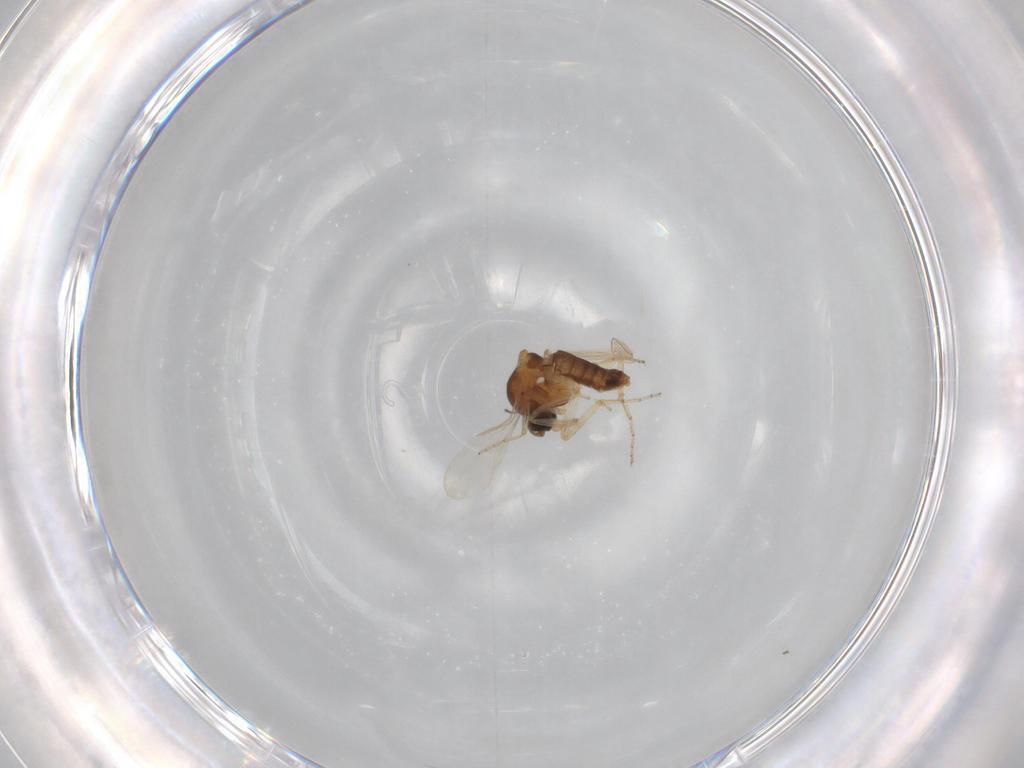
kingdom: Animalia
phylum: Arthropoda
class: Insecta
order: Diptera
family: Ceratopogonidae
